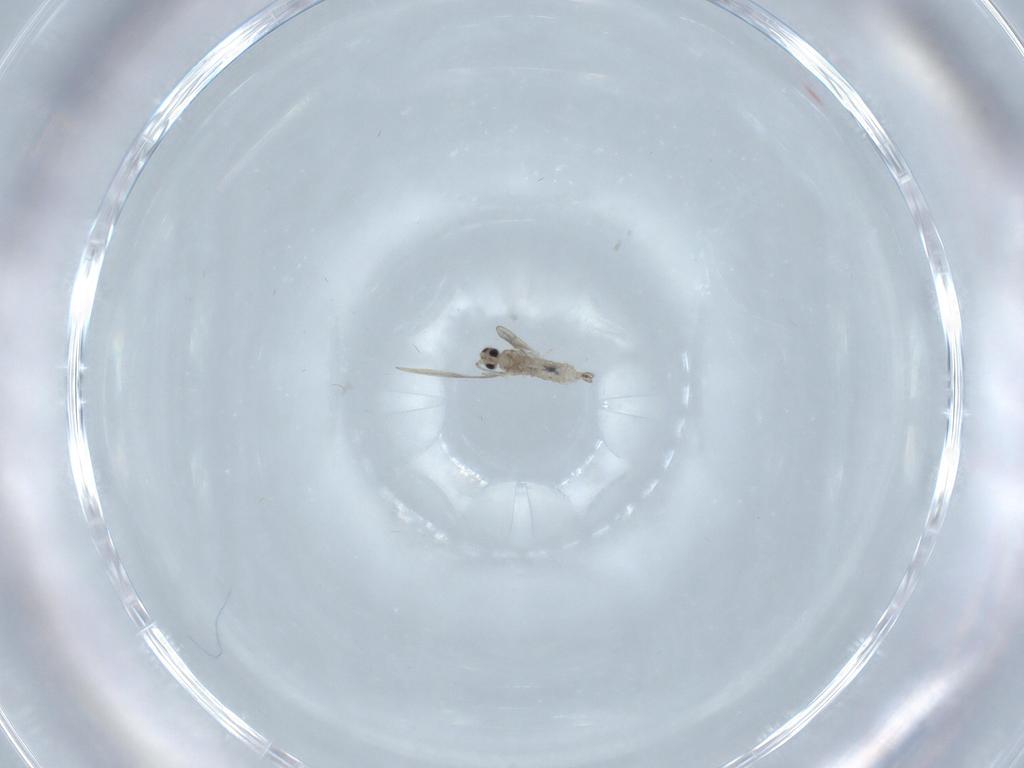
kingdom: Animalia
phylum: Arthropoda
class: Insecta
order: Diptera
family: Cecidomyiidae
